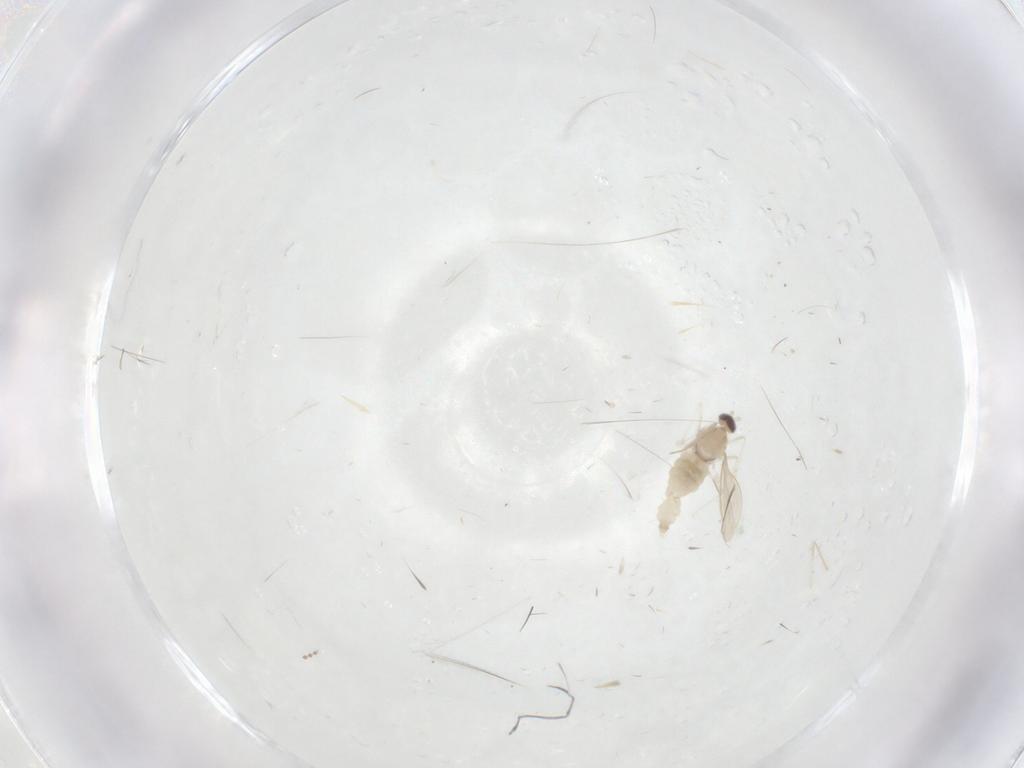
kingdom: Animalia
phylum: Arthropoda
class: Insecta
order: Diptera
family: Cecidomyiidae
